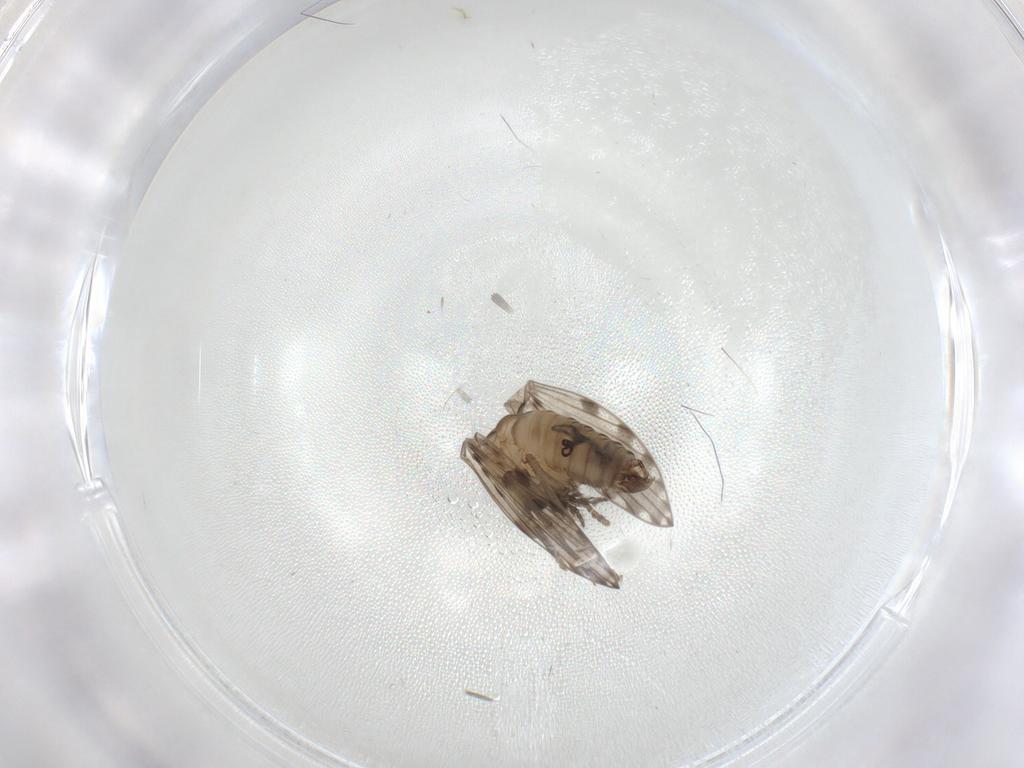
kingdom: Animalia
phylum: Arthropoda
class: Insecta
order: Diptera
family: Psychodidae
